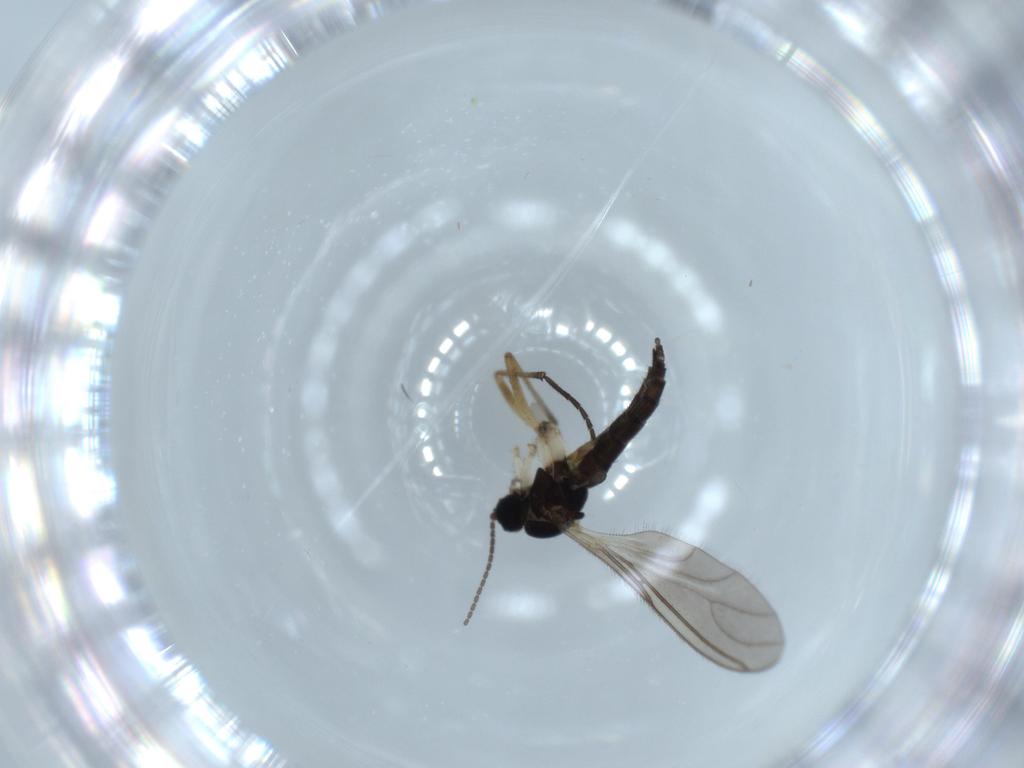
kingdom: Animalia
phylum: Arthropoda
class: Insecta
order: Diptera
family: Sciaridae
